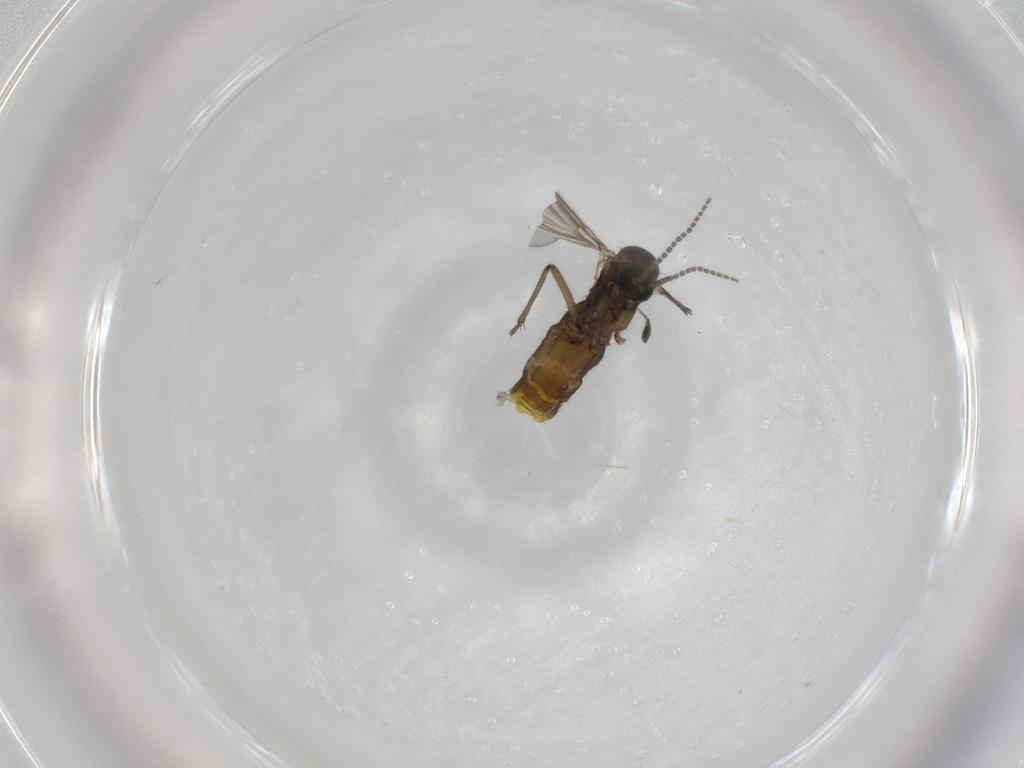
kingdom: Animalia
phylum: Arthropoda
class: Insecta
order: Diptera
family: Sciaridae
